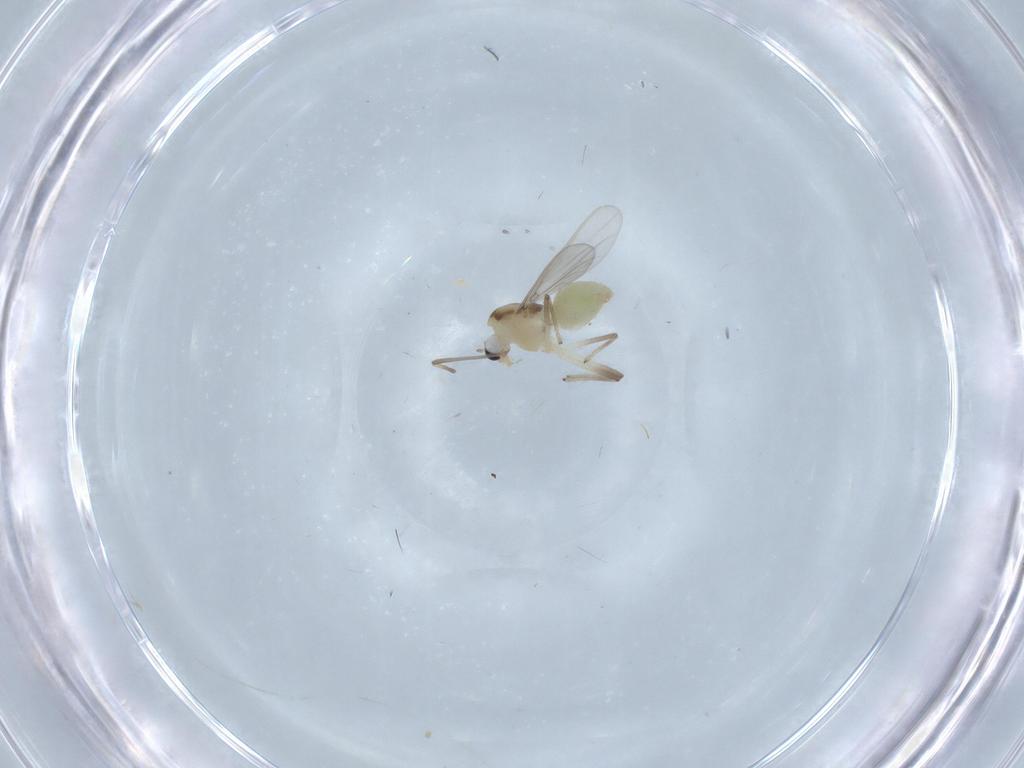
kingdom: Animalia
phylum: Arthropoda
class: Insecta
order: Diptera
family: Chironomidae
